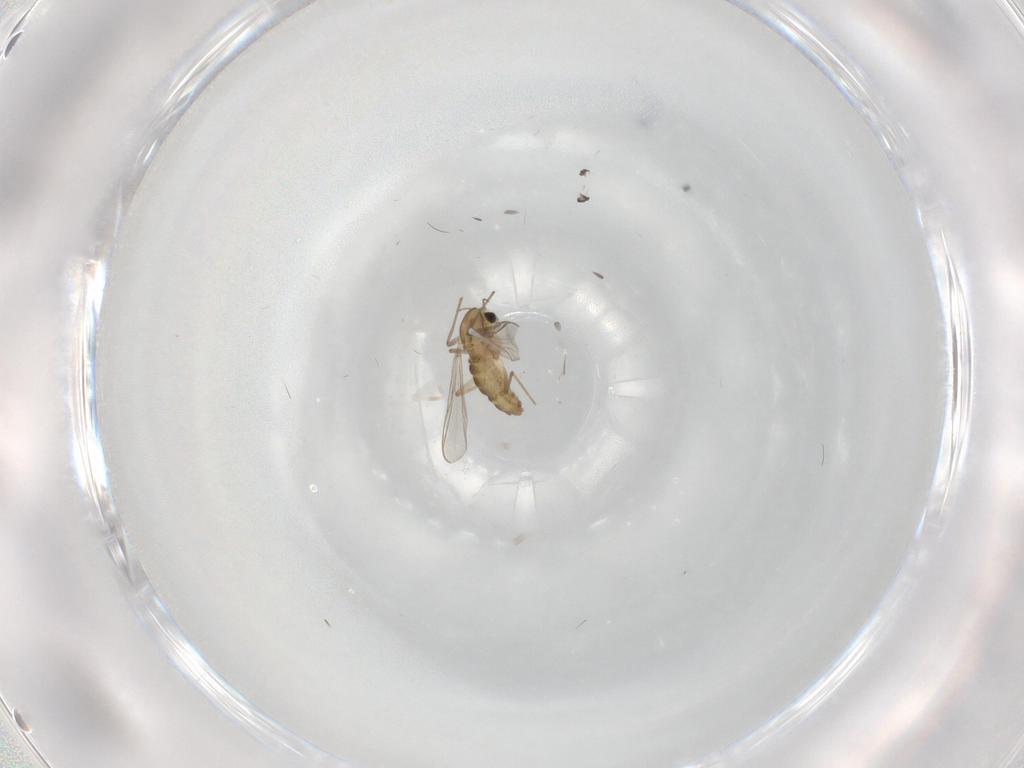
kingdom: Animalia
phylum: Arthropoda
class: Insecta
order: Diptera
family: Chironomidae
